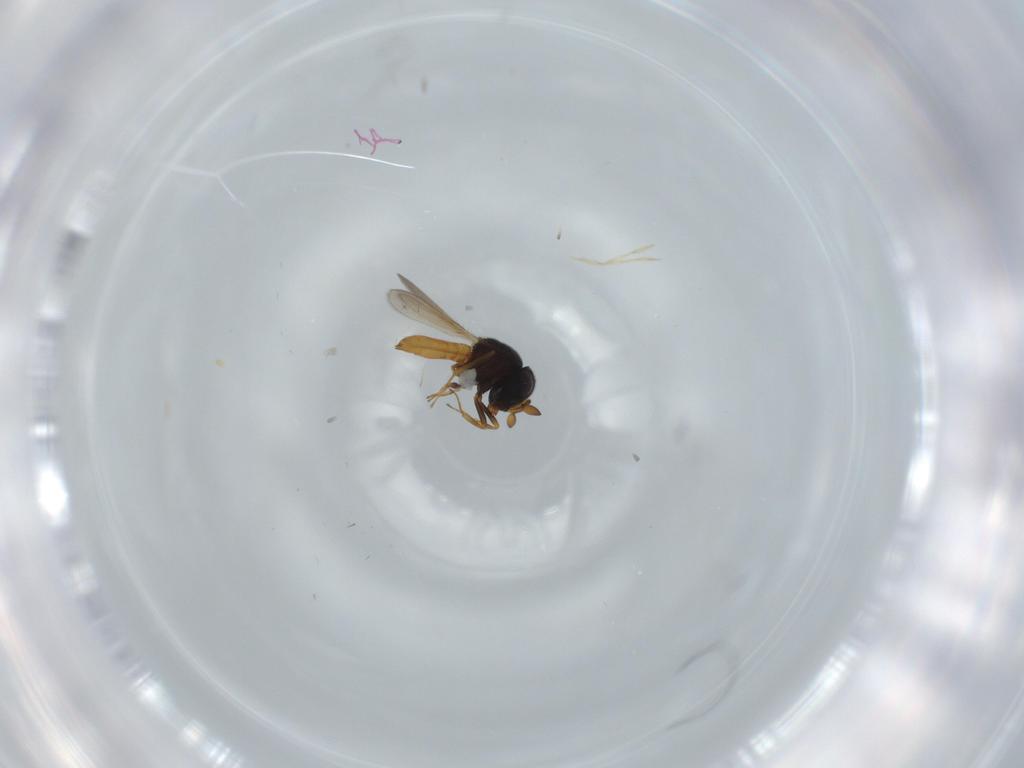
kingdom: Animalia
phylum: Arthropoda
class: Insecta
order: Hymenoptera
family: Scelionidae
